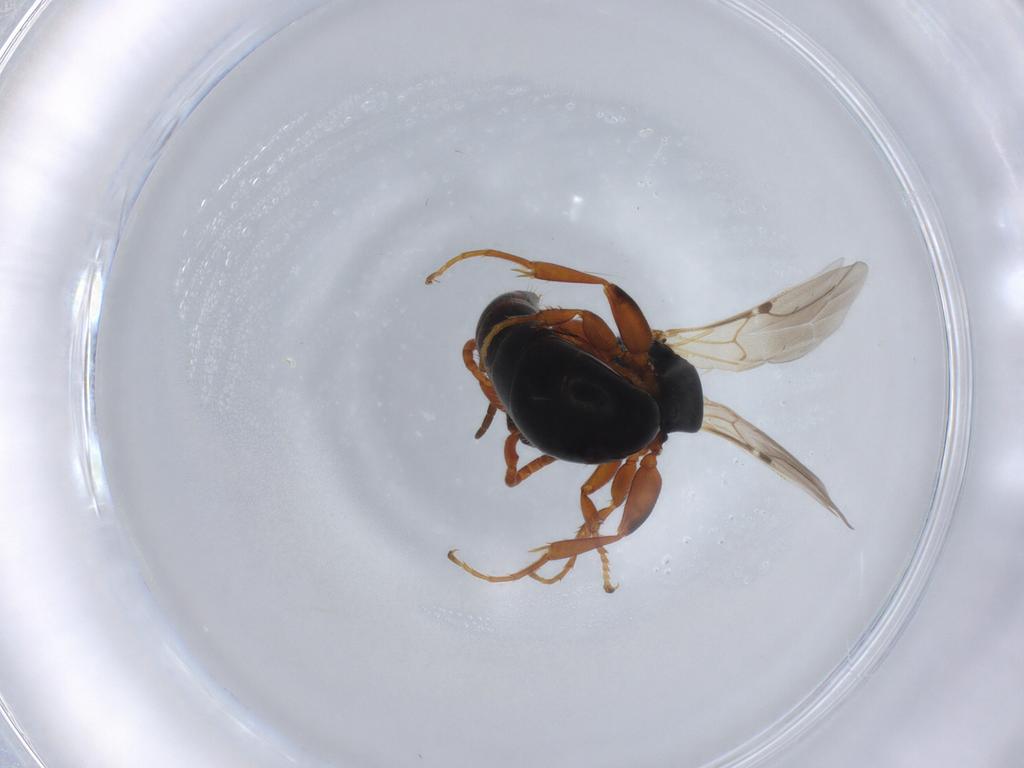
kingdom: Animalia
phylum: Arthropoda
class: Insecta
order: Hymenoptera
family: Bethylidae
